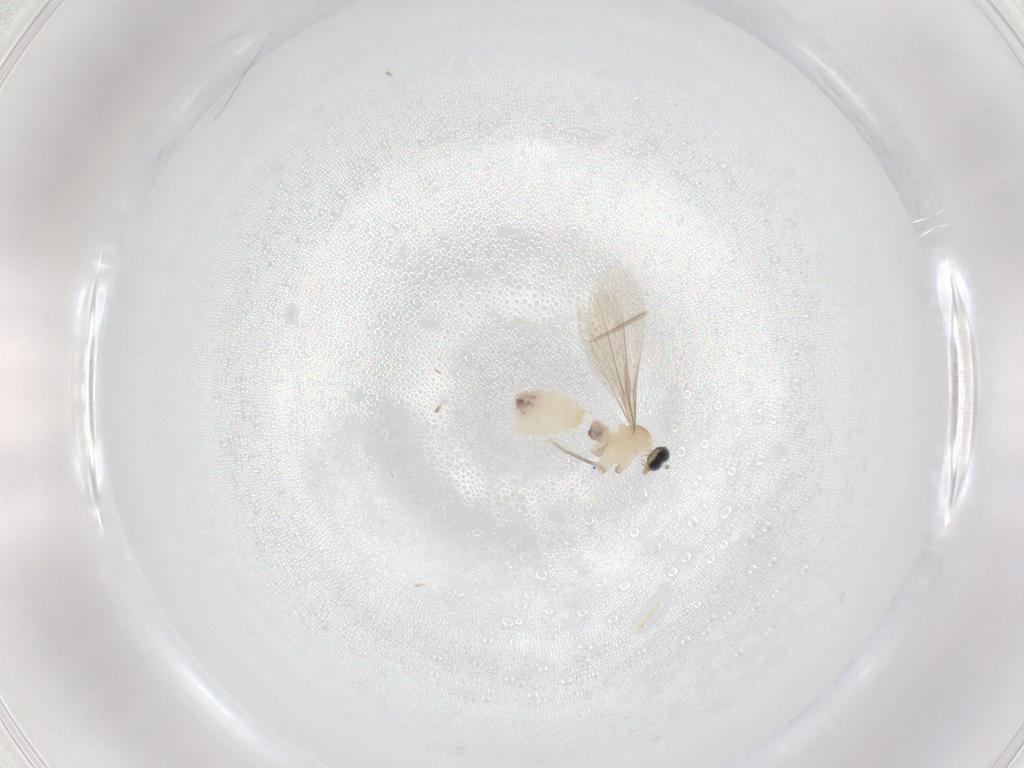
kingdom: Animalia
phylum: Arthropoda
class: Insecta
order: Diptera
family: Cecidomyiidae
